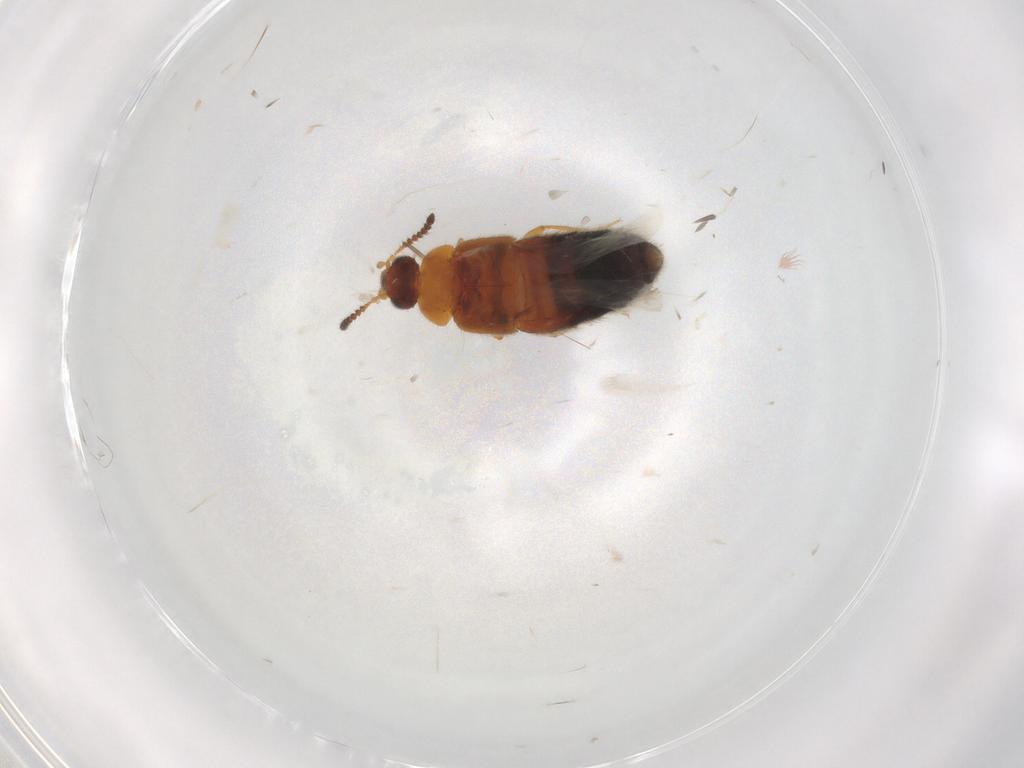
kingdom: Animalia
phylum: Arthropoda
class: Insecta
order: Coleoptera
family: Staphylinidae
